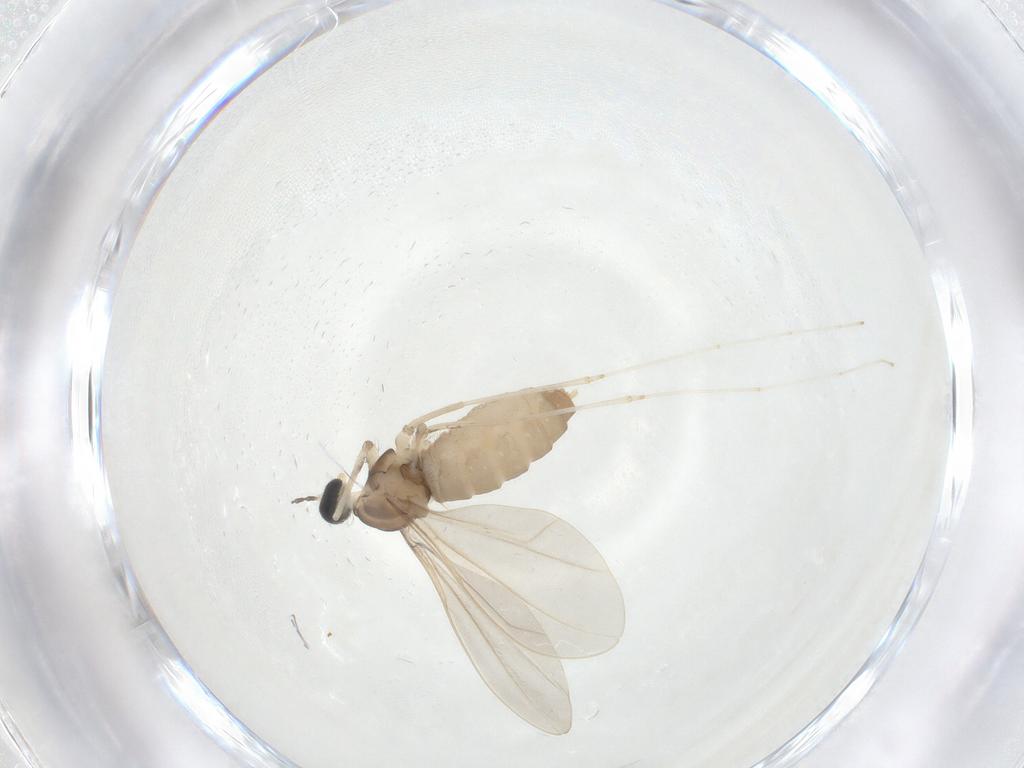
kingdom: Animalia
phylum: Arthropoda
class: Insecta
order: Diptera
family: Cecidomyiidae
